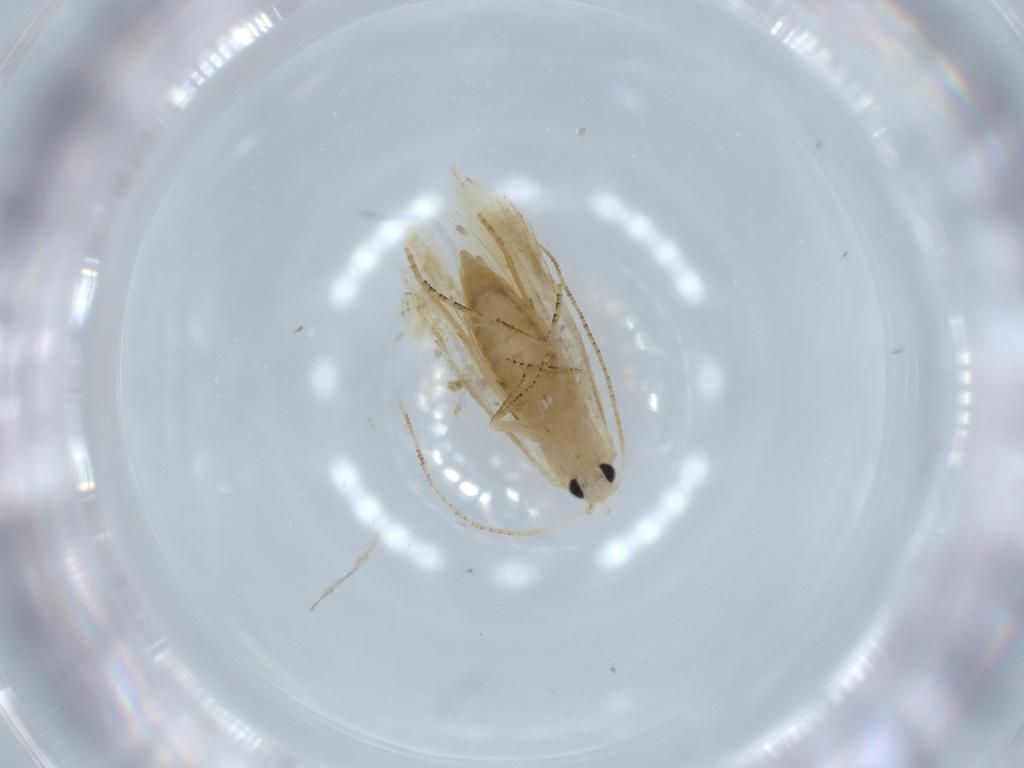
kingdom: Animalia
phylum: Arthropoda
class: Insecta
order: Lepidoptera
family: Bucculatricidae
